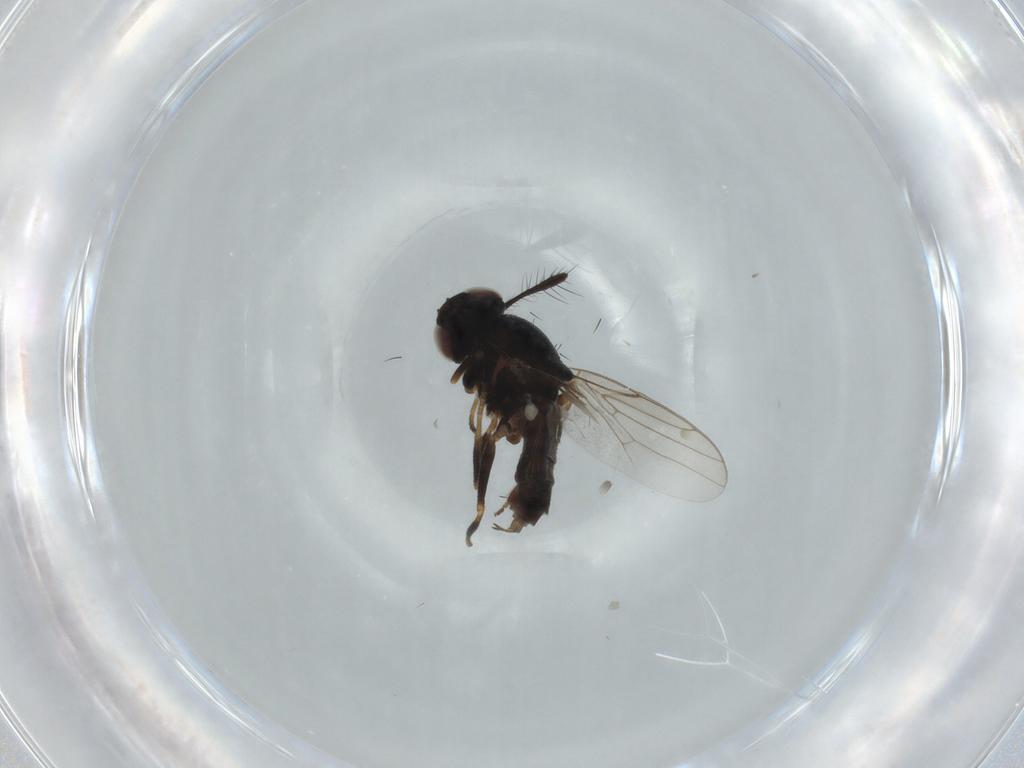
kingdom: Animalia
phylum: Arthropoda
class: Insecta
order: Diptera
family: Chloropidae
